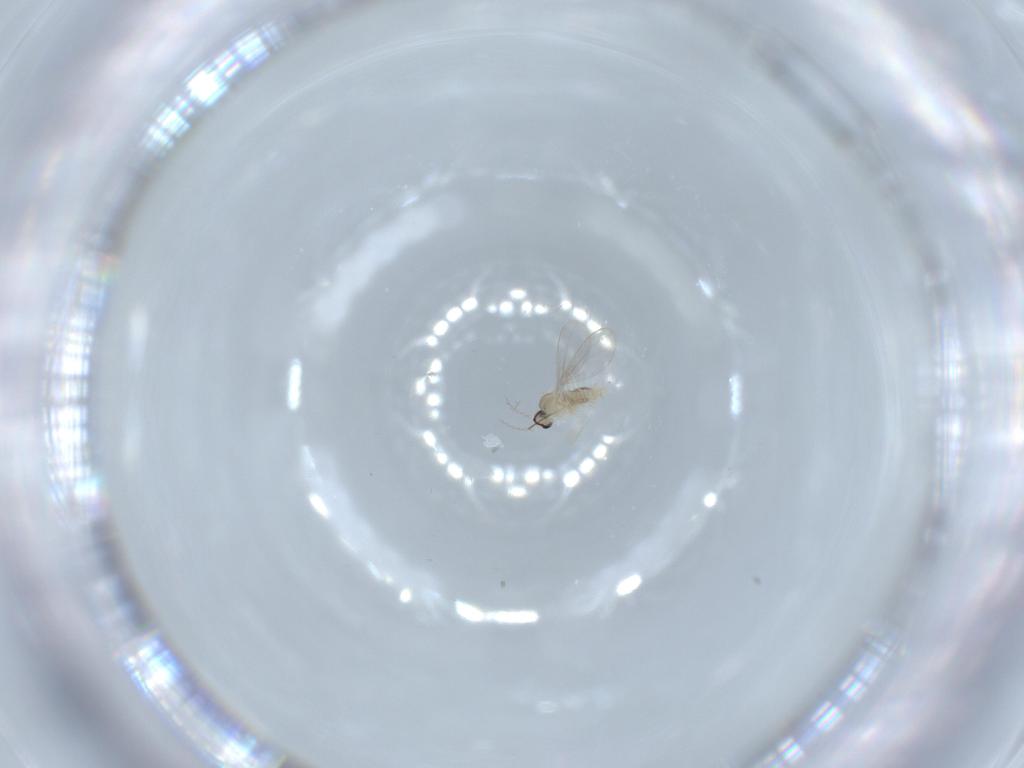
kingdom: Animalia
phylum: Arthropoda
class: Insecta
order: Diptera
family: Cecidomyiidae
